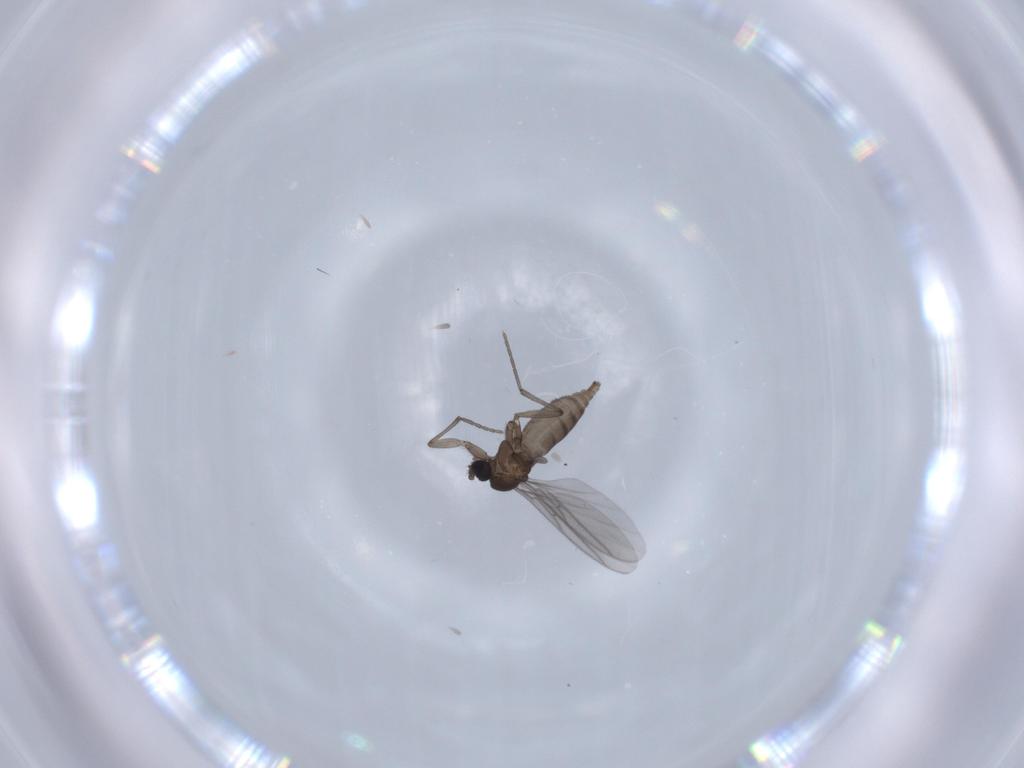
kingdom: Animalia
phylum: Arthropoda
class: Insecta
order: Diptera
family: Sciaridae
